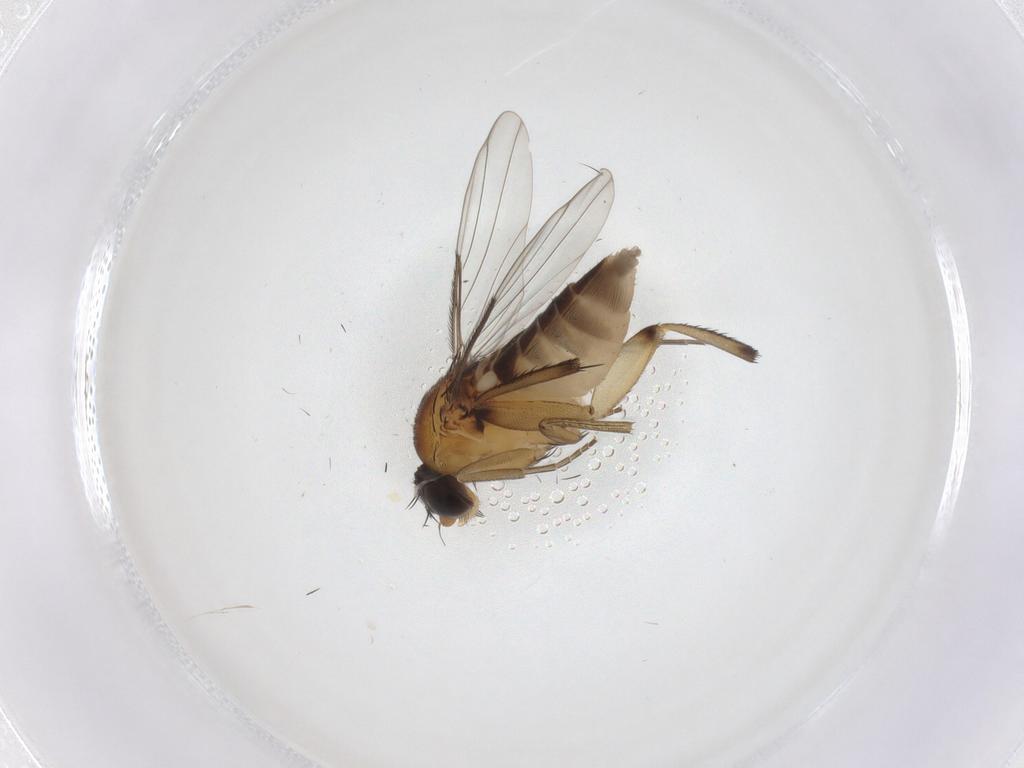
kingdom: Animalia
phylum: Arthropoda
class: Insecta
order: Diptera
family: Phoridae
